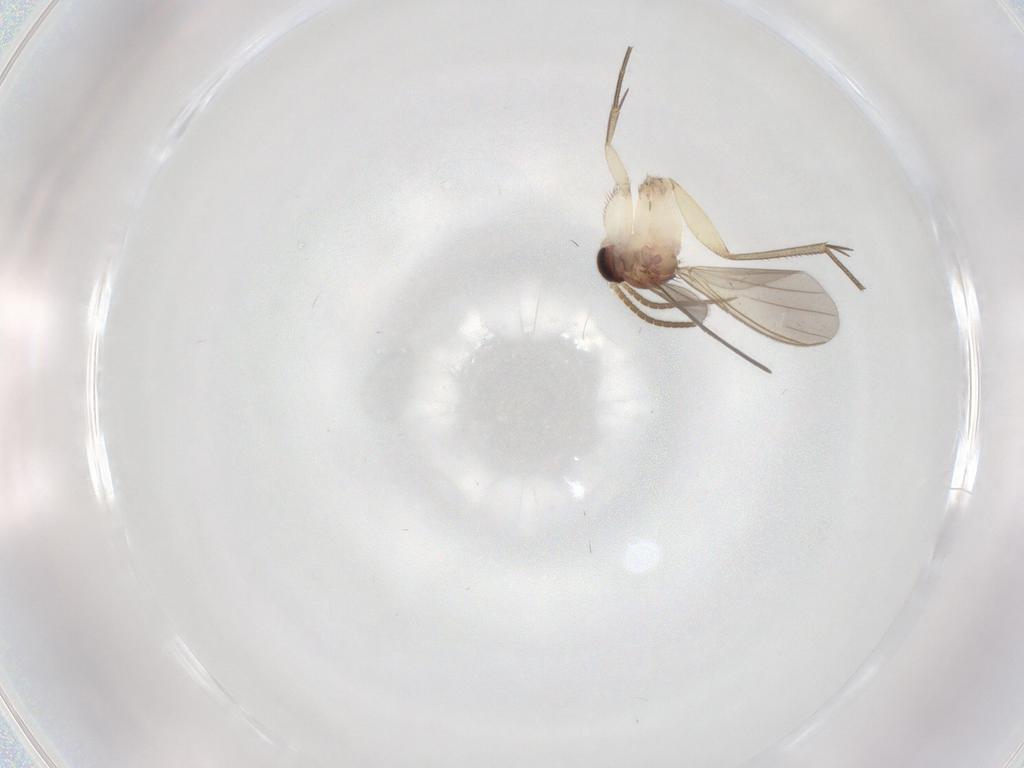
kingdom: Animalia
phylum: Arthropoda
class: Insecta
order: Diptera
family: Mycetophilidae
